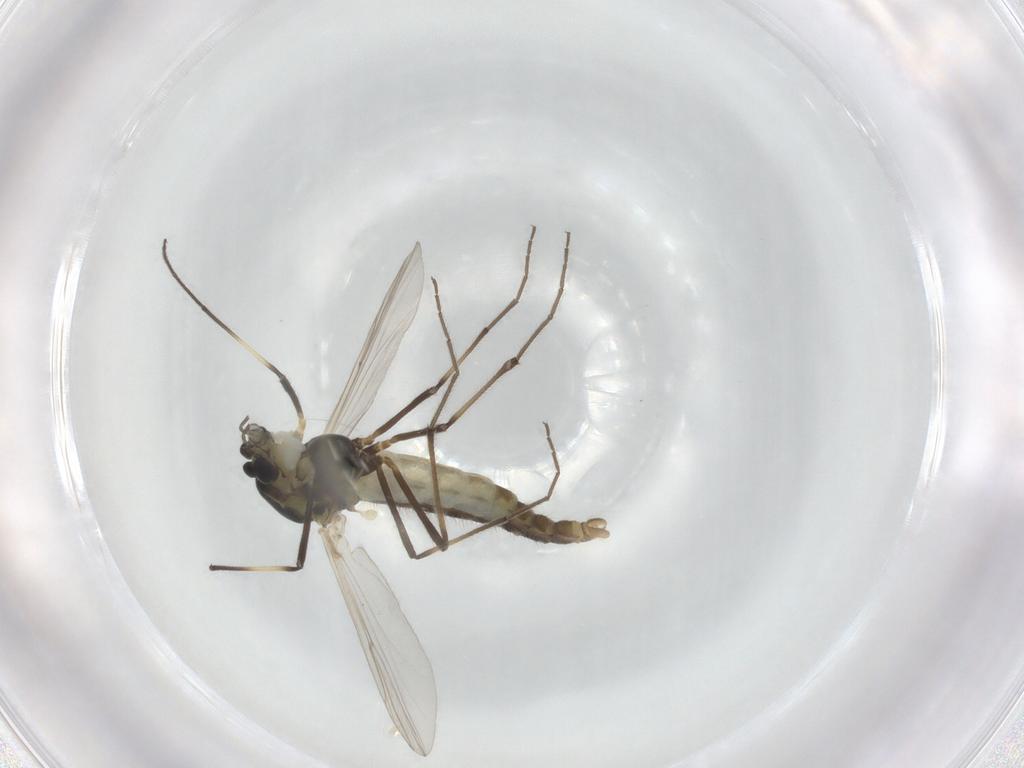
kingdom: Animalia
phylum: Arthropoda
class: Insecta
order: Diptera
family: Chironomidae
